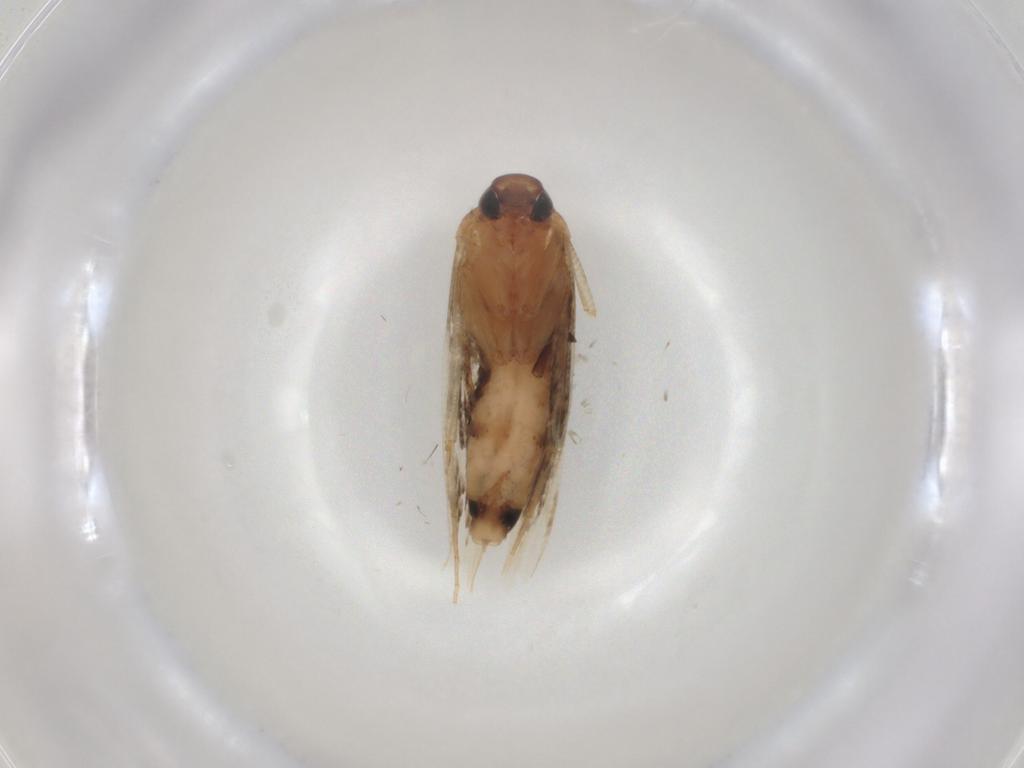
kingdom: Animalia
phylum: Arthropoda
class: Insecta
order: Lepidoptera
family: Cosmopterigidae
